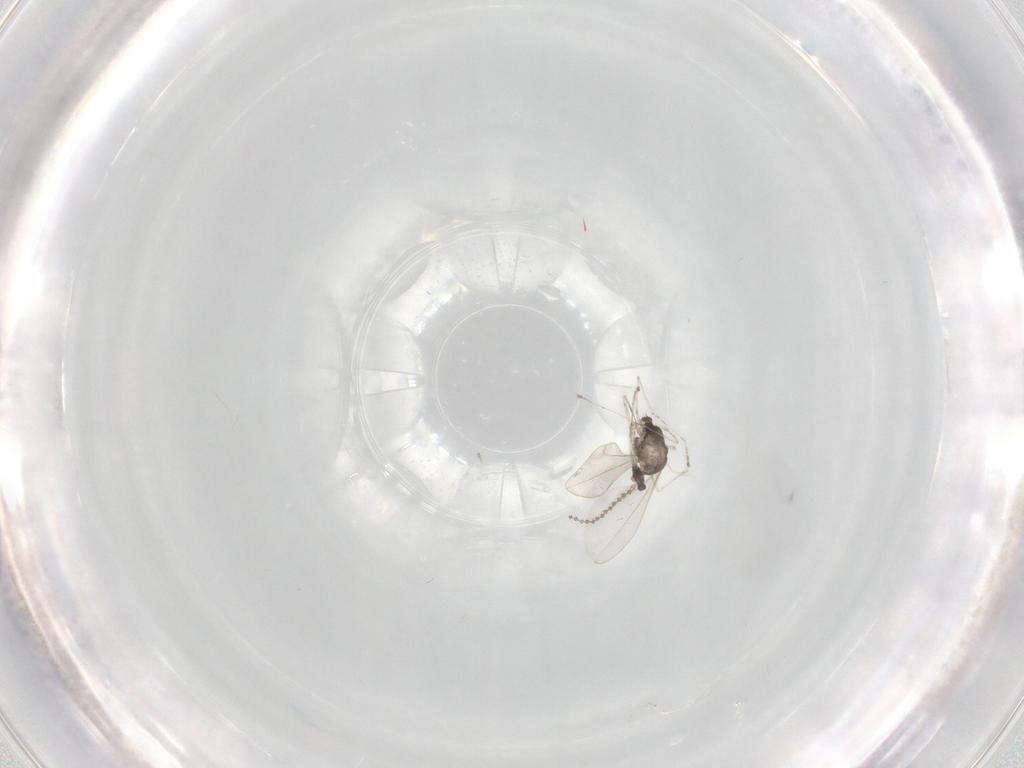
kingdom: Animalia
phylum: Arthropoda
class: Insecta
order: Diptera
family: Cecidomyiidae
